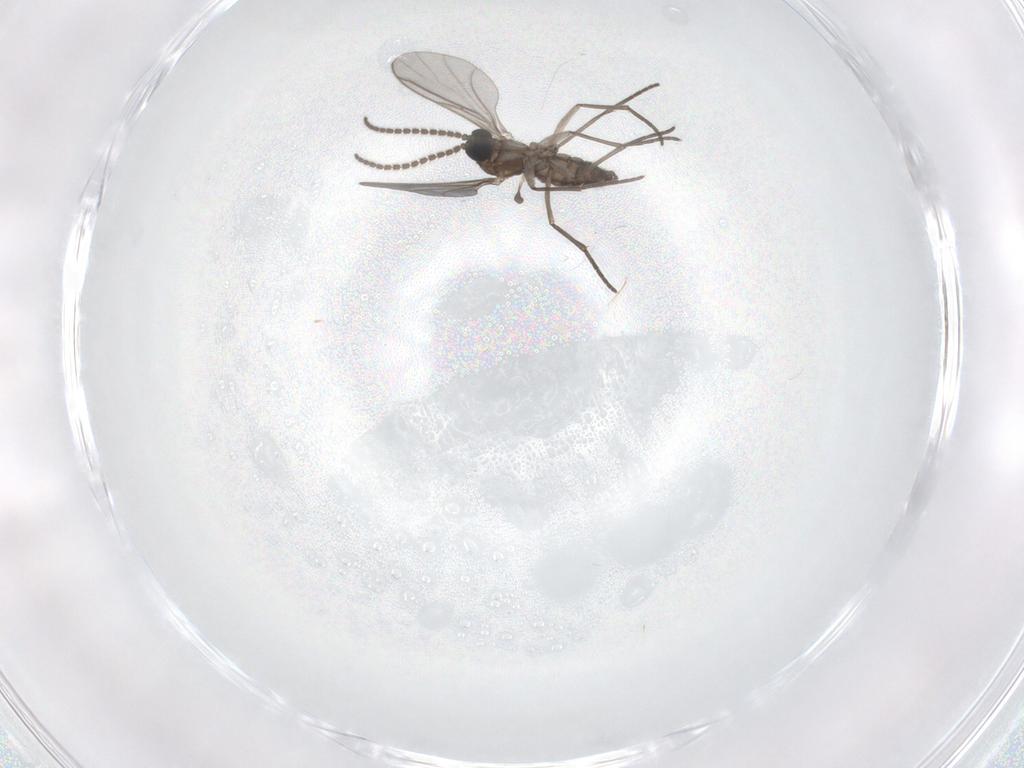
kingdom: Animalia
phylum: Arthropoda
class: Insecta
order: Diptera
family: Chironomidae
